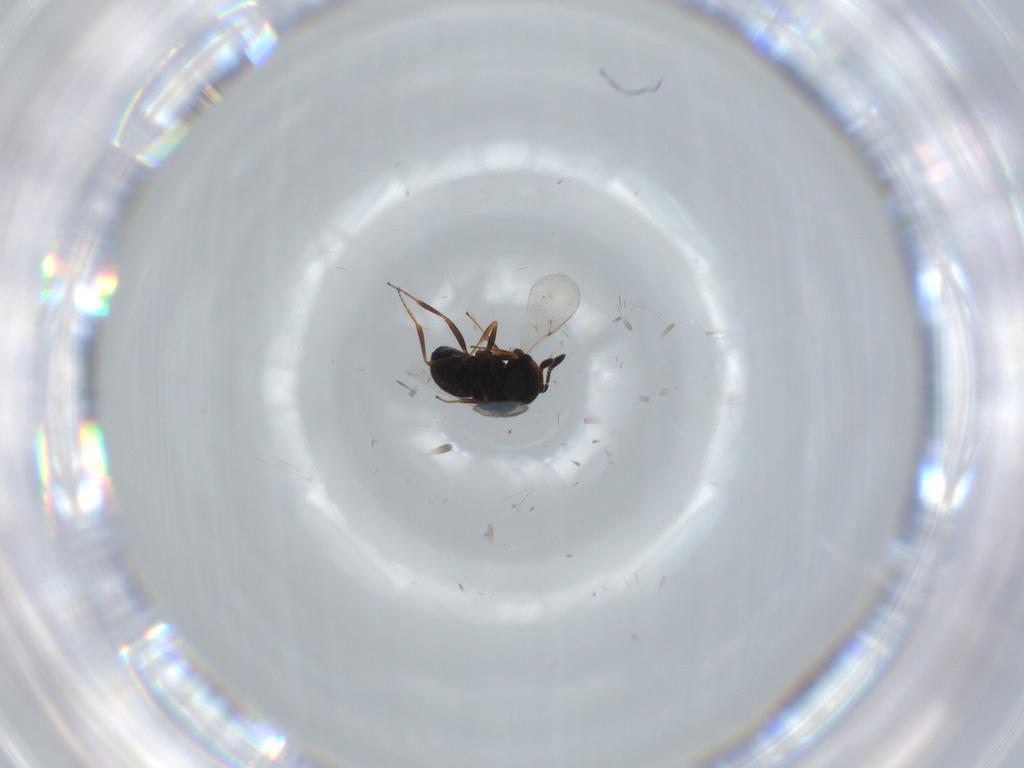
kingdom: Animalia
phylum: Arthropoda
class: Insecta
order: Hymenoptera
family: Scelionidae
